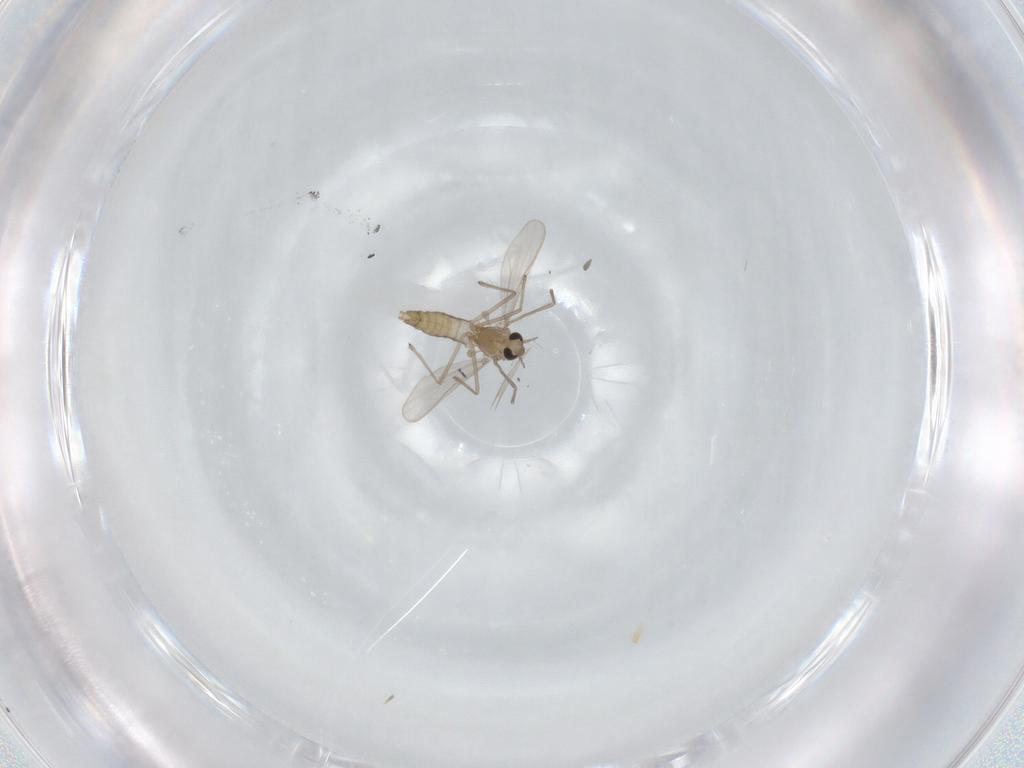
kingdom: Animalia
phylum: Arthropoda
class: Insecta
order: Diptera
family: Chironomidae
